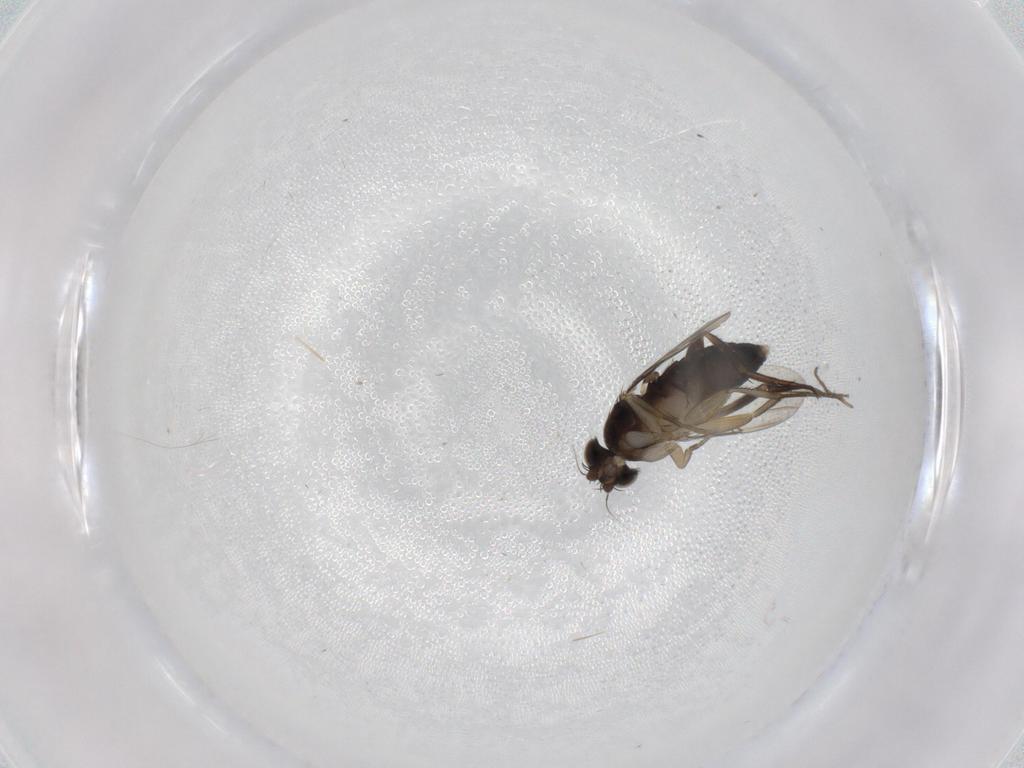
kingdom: Animalia
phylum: Arthropoda
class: Insecta
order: Diptera
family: Phoridae
